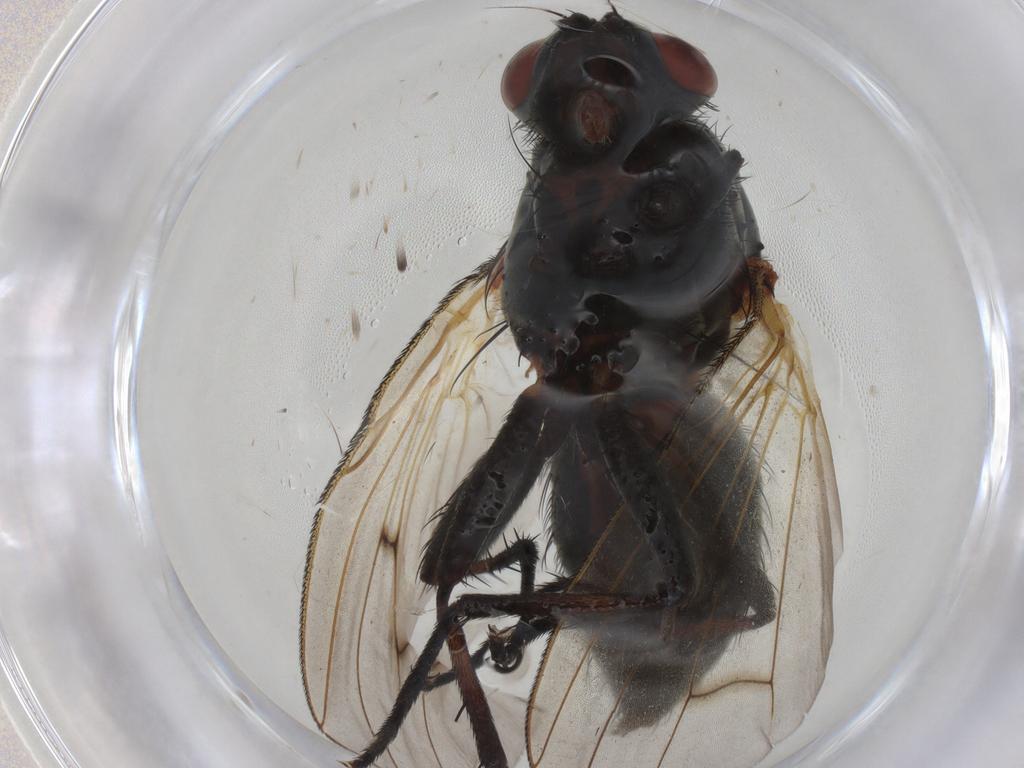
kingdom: Animalia
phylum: Arthropoda
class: Insecta
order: Diptera
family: Anthomyiidae
